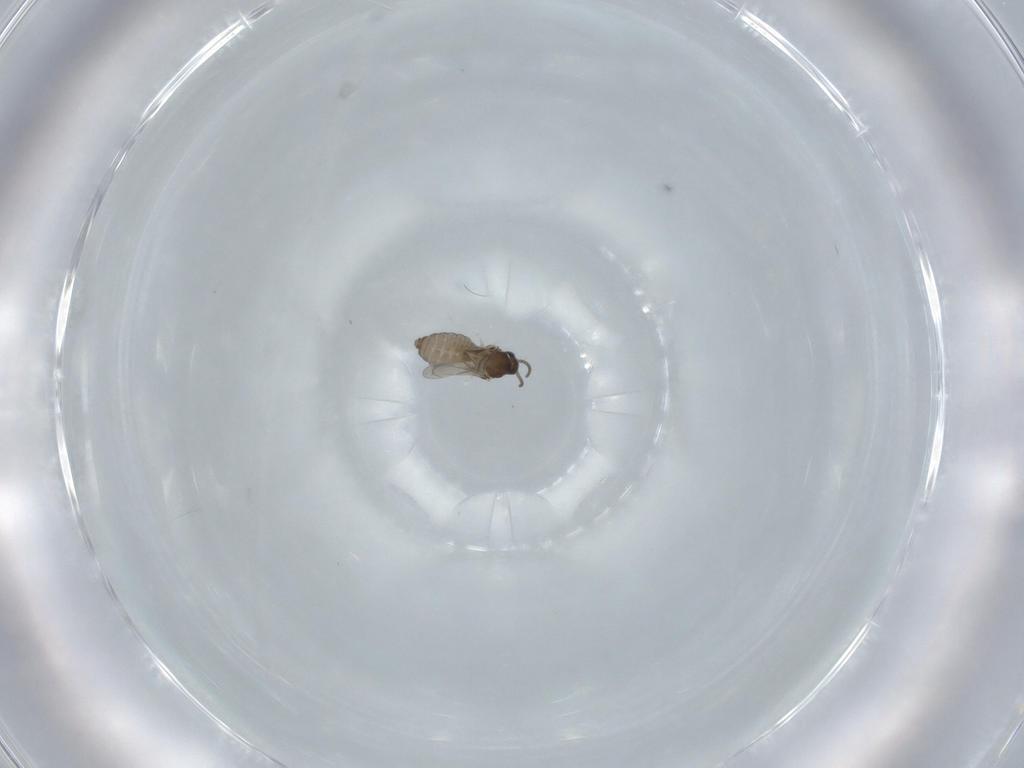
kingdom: Animalia
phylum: Arthropoda
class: Insecta
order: Diptera
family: Cecidomyiidae
